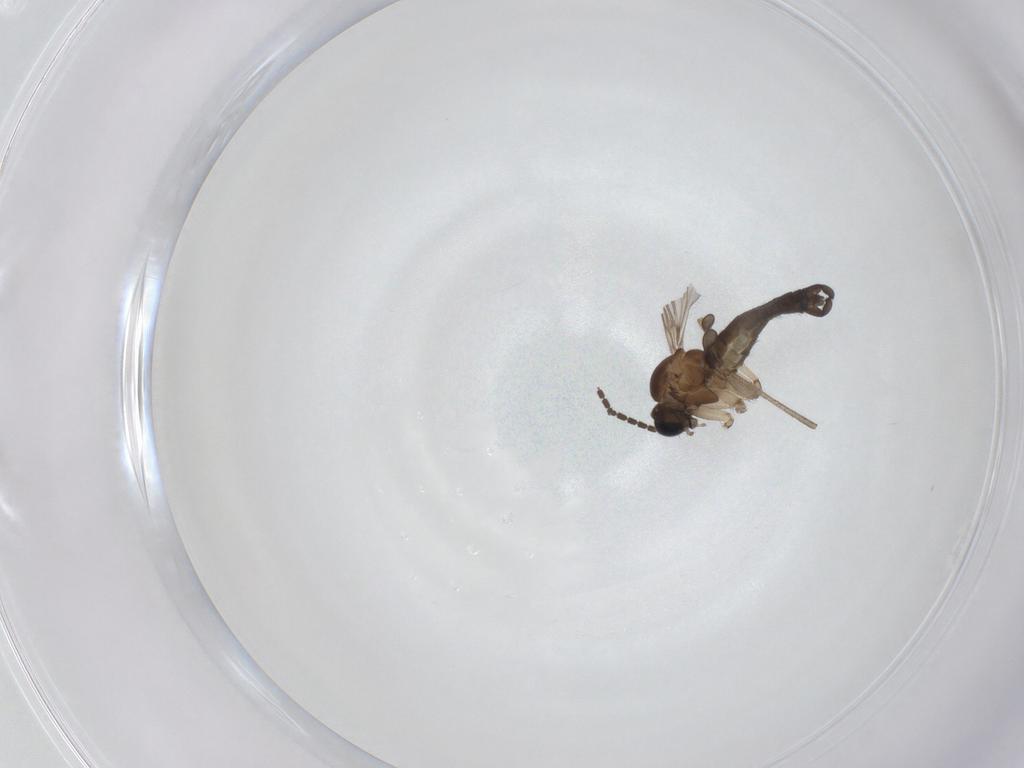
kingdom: Animalia
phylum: Arthropoda
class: Insecta
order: Diptera
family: Sciaridae
